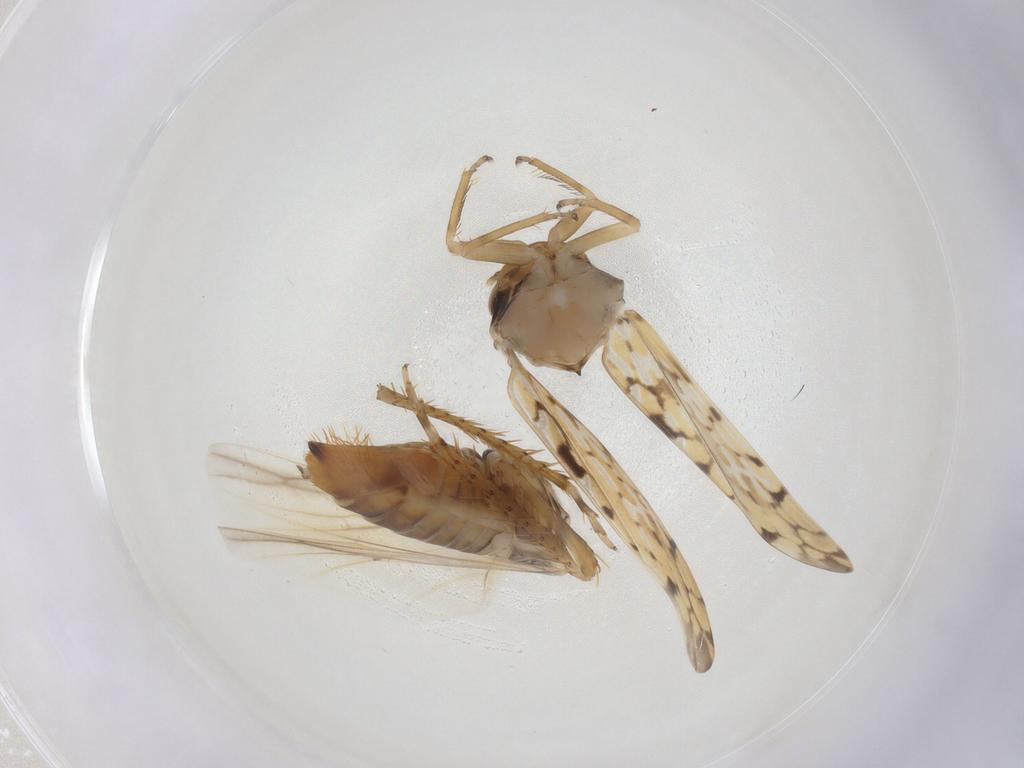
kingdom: Animalia
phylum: Arthropoda
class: Insecta
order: Hemiptera
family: Cicadellidae
